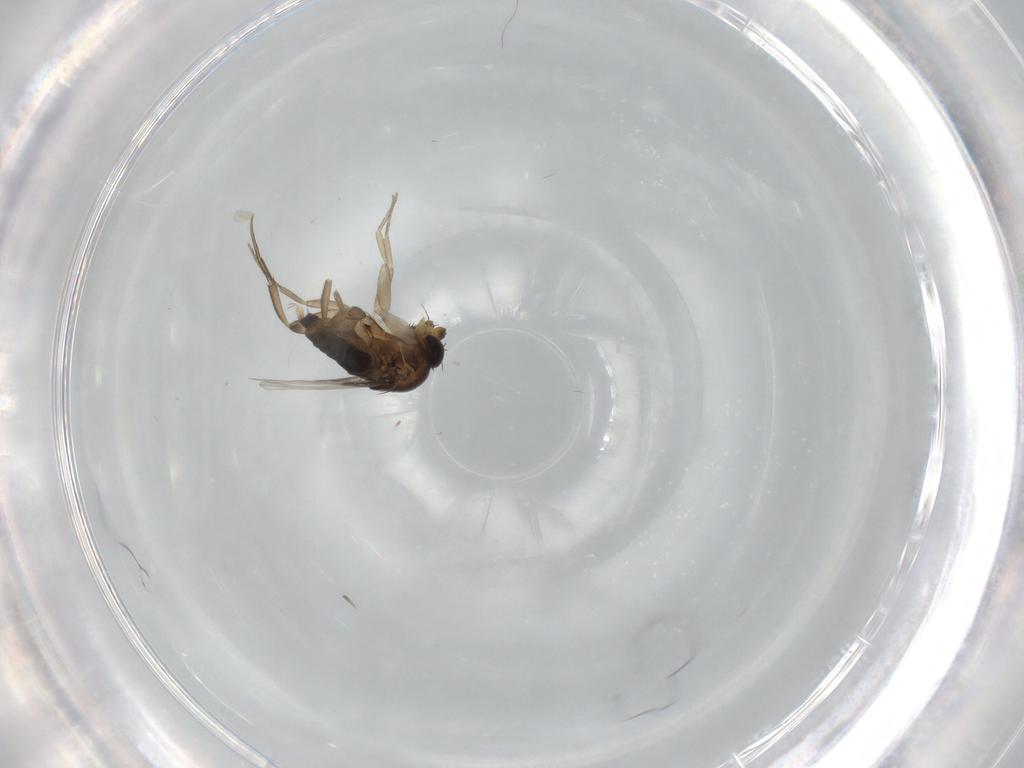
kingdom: Animalia
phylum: Arthropoda
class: Insecta
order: Diptera
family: Phoridae
